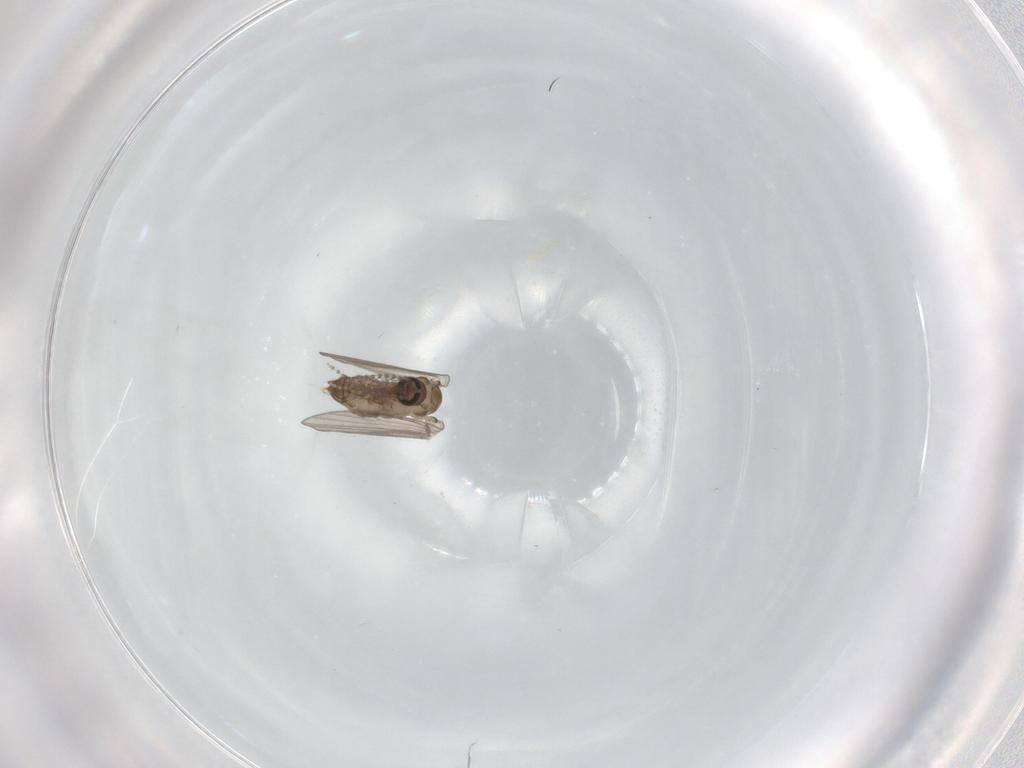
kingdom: Animalia
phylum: Arthropoda
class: Insecta
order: Diptera
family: Psychodidae
